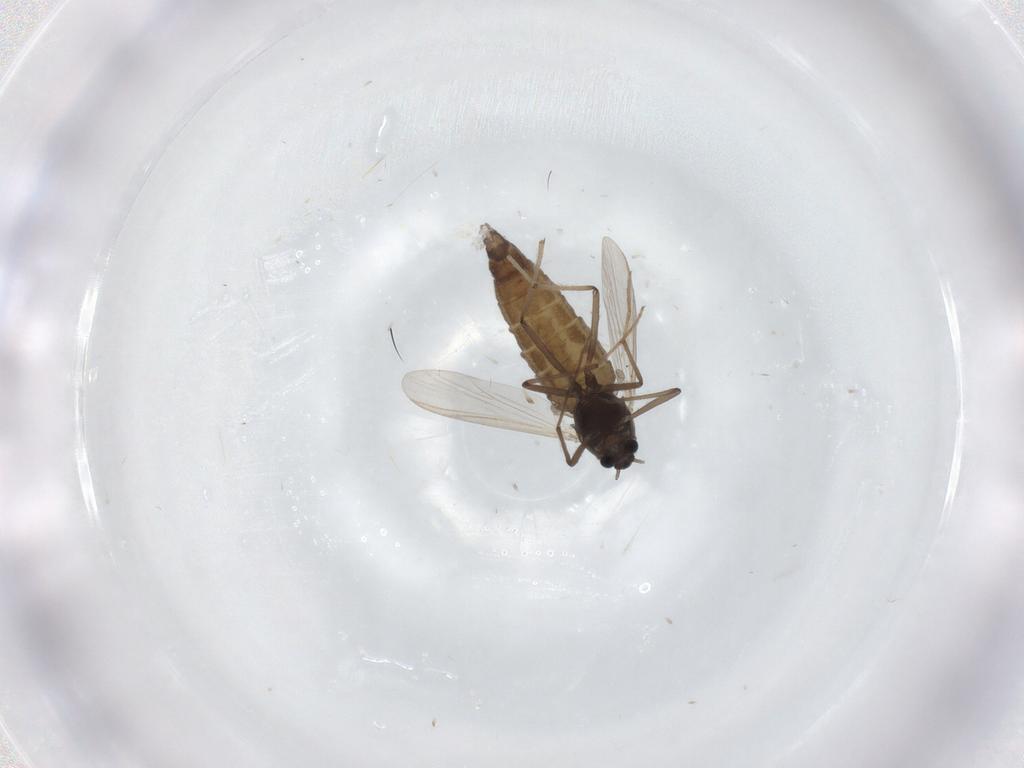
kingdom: Animalia
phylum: Arthropoda
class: Insecta
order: Diptera
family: Chironomidae
